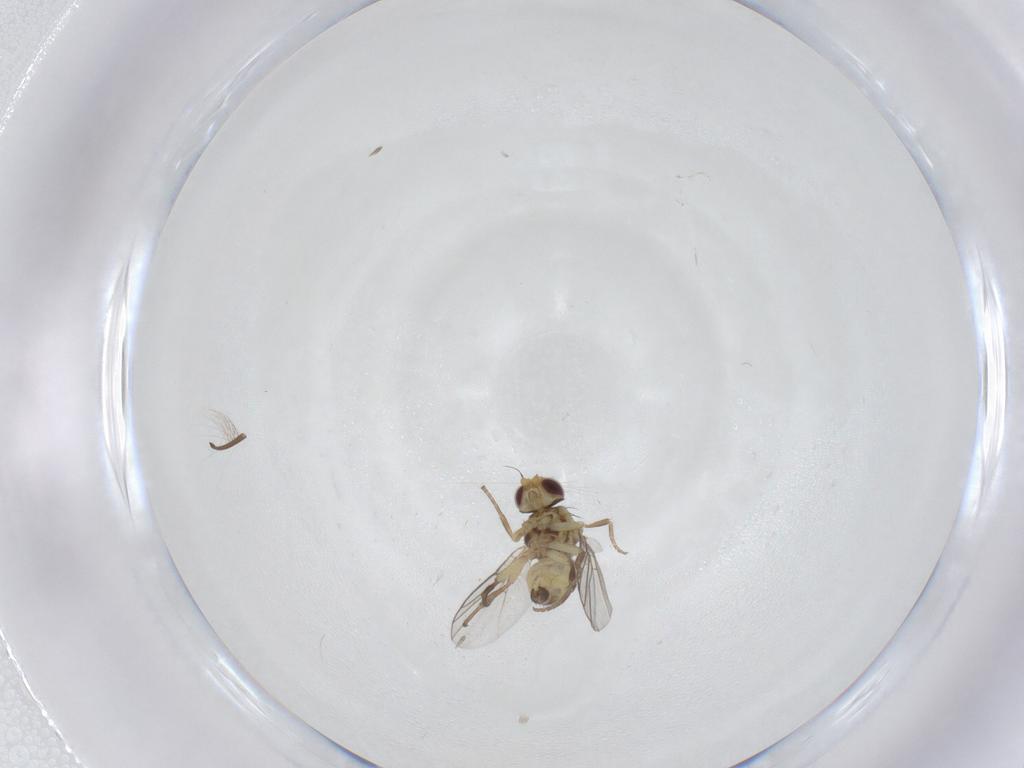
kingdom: Animalia
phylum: Arthropoda
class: Insecta
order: Diptera
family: Agromyzidae
